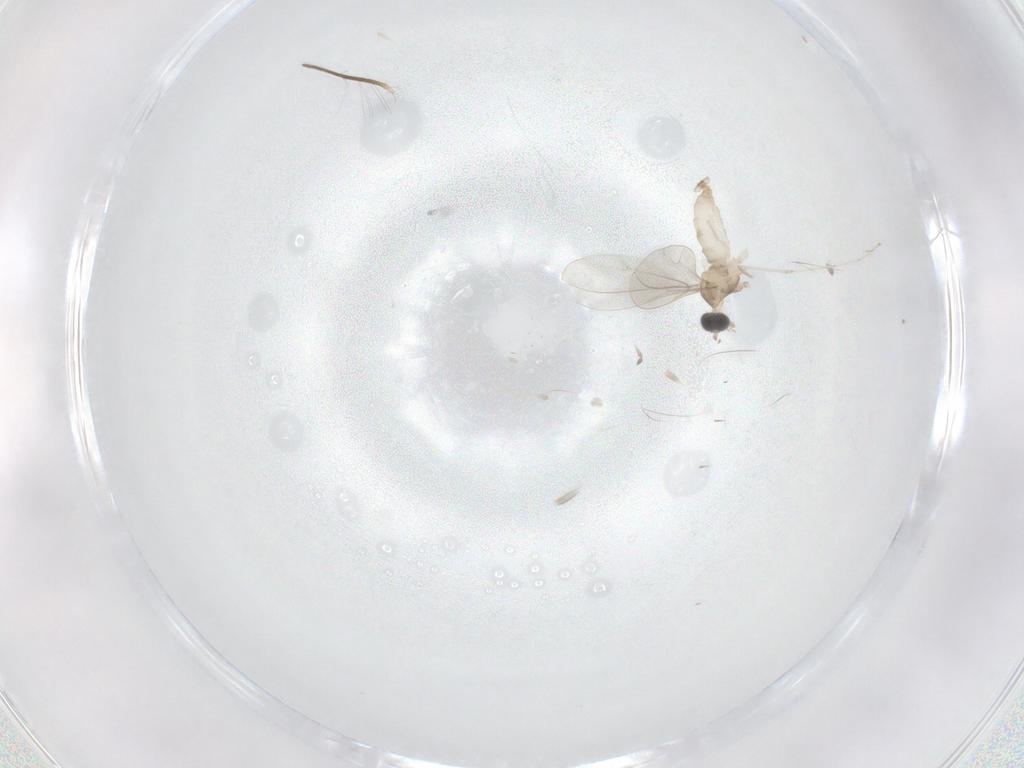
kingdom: Animalia
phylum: Arthropoda
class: Insecta
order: Diptera
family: Cecidomyiidae
